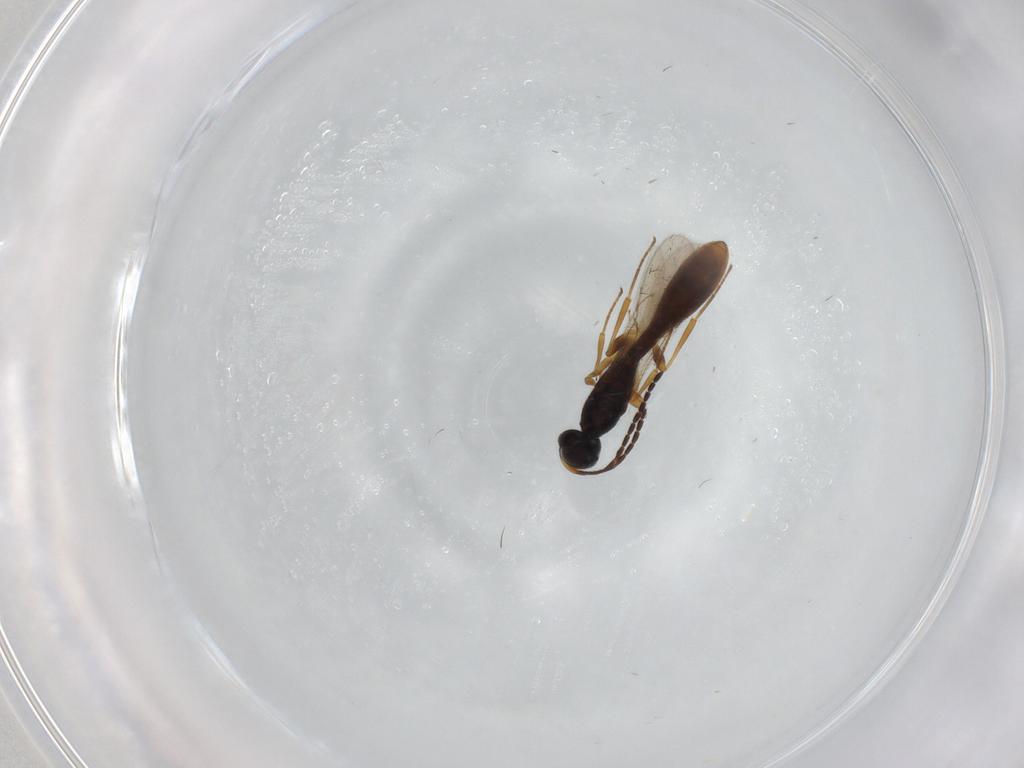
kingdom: Animalia
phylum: Arthropoda
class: Insecta
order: Hymenoptera
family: Scelionidae
